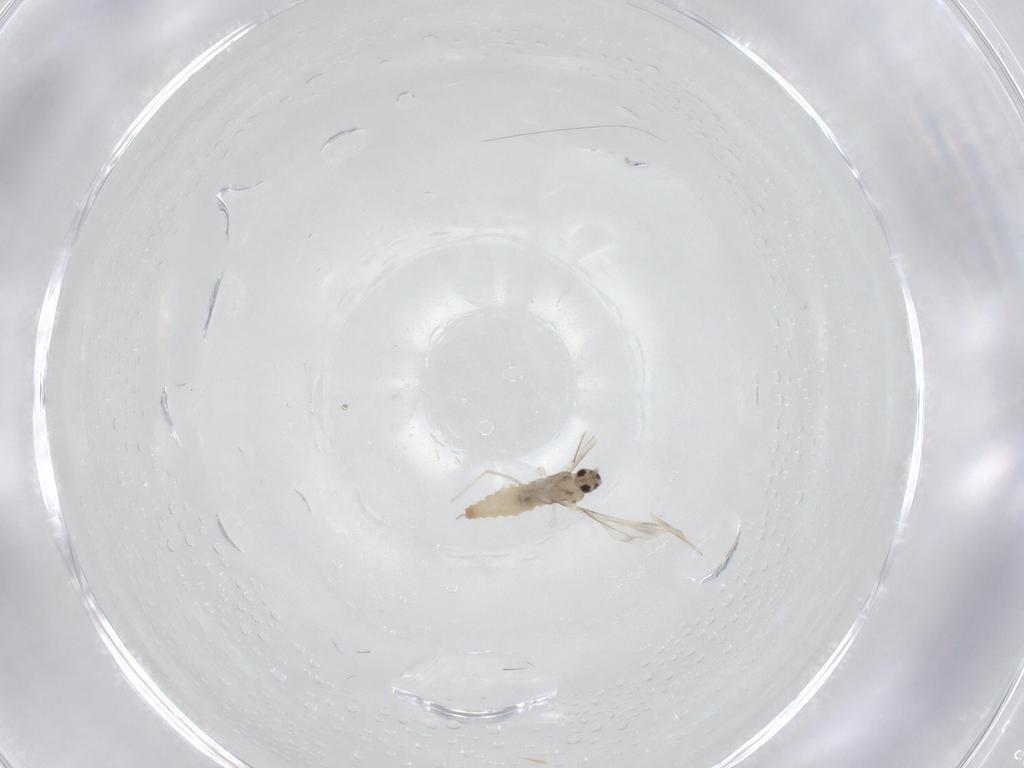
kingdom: Animalia
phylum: Arthropoda
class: Insecta
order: Diptera
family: Cecidomyiidae
